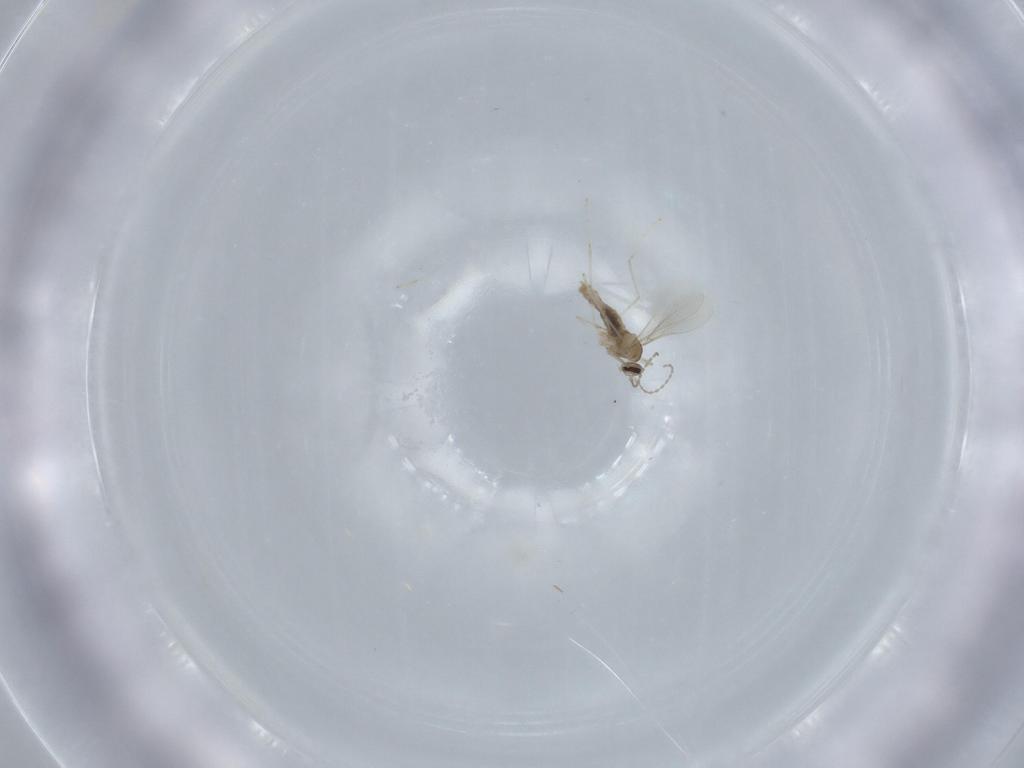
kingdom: Animalia
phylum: Arthropoda
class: Insecta
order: Diptera
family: Cecidomyiidae
